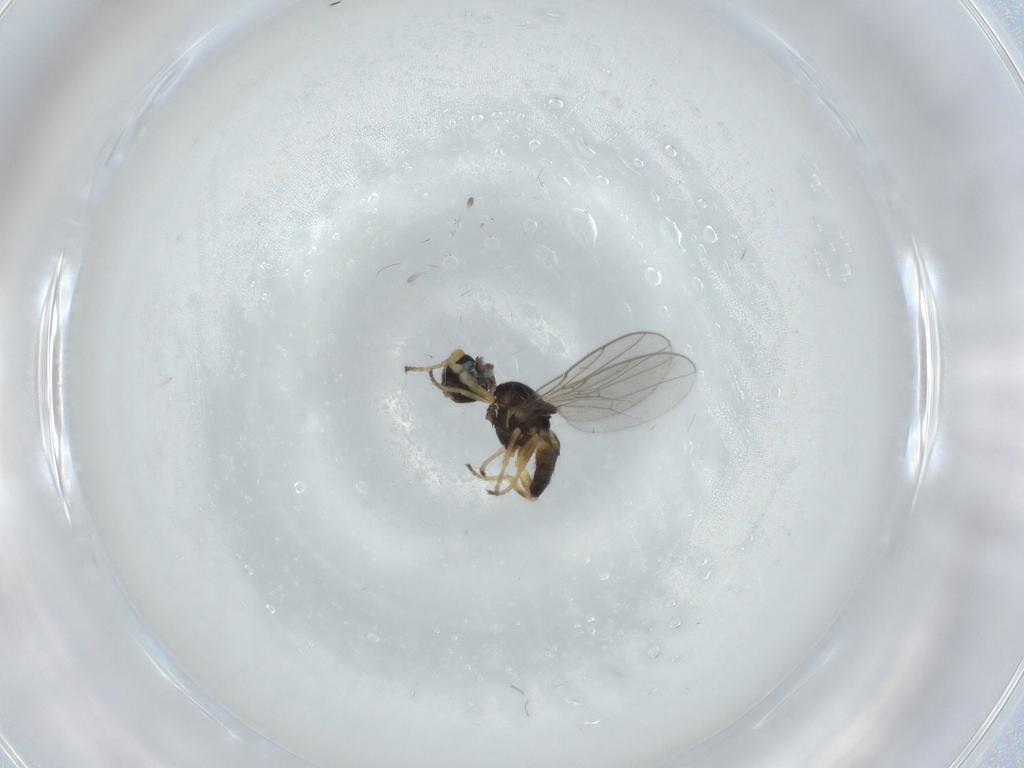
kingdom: Animalia
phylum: Arthropoda
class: Insecta
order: Diptera
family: Chloropidae
